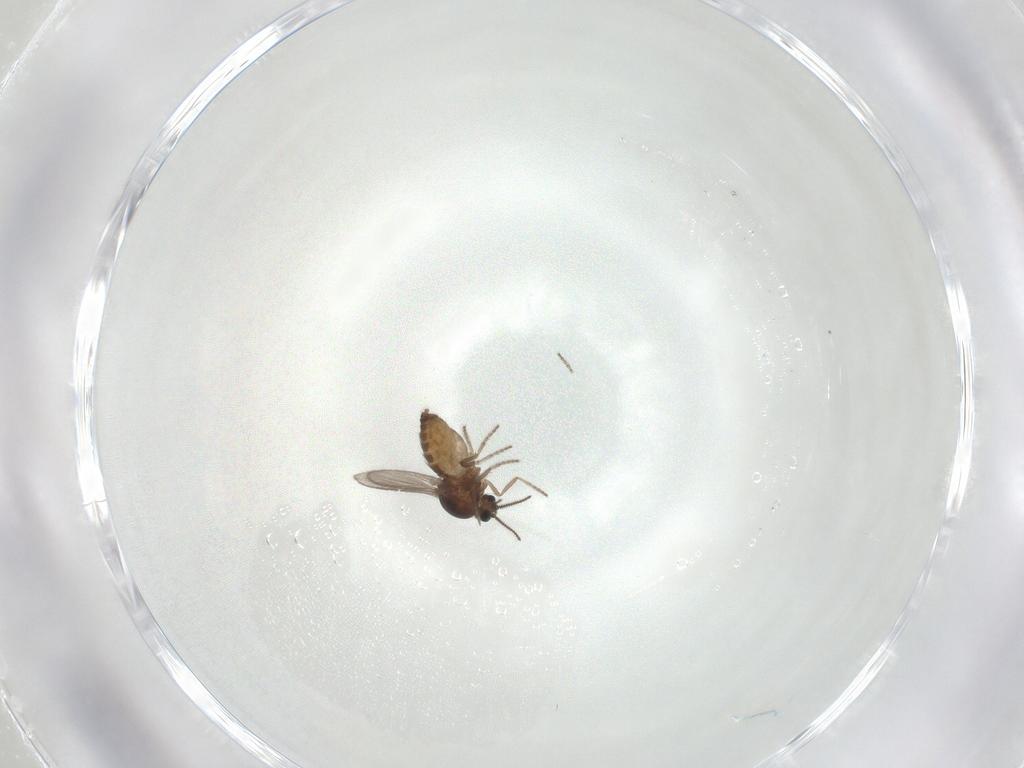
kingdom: Animalia
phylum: Arthropoda
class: Insecta
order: Diptera
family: Ceratopogonidae
